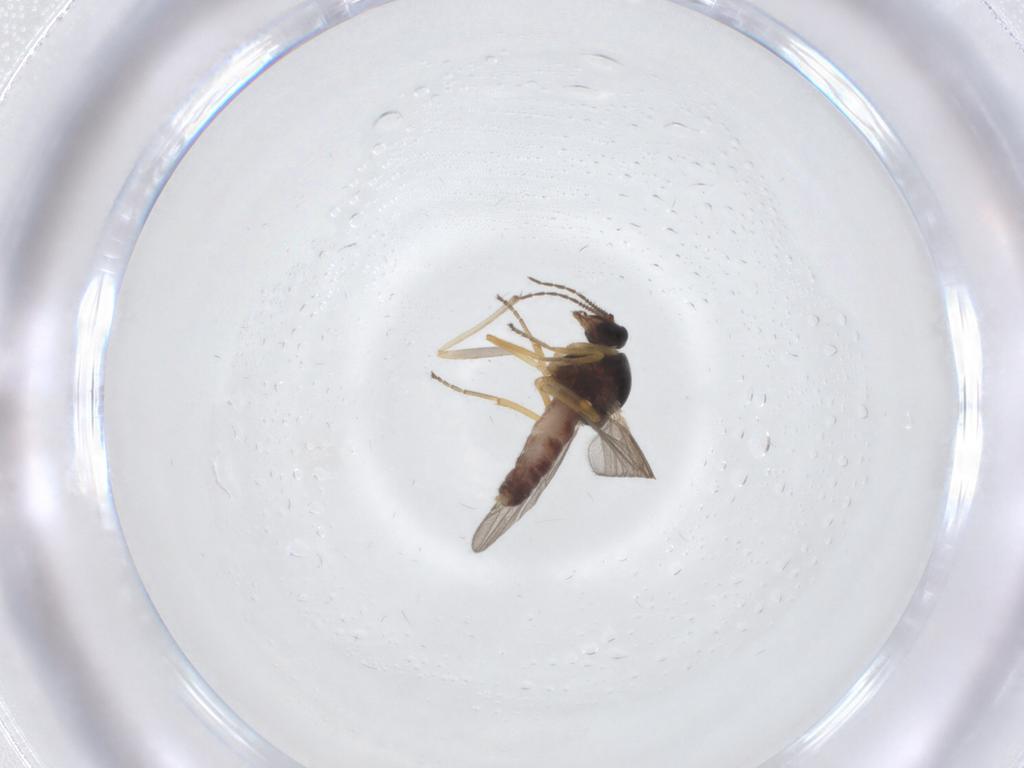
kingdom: Animalia
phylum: Arthropoda
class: Insecta
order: Diptera
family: Ceratopogonidae
